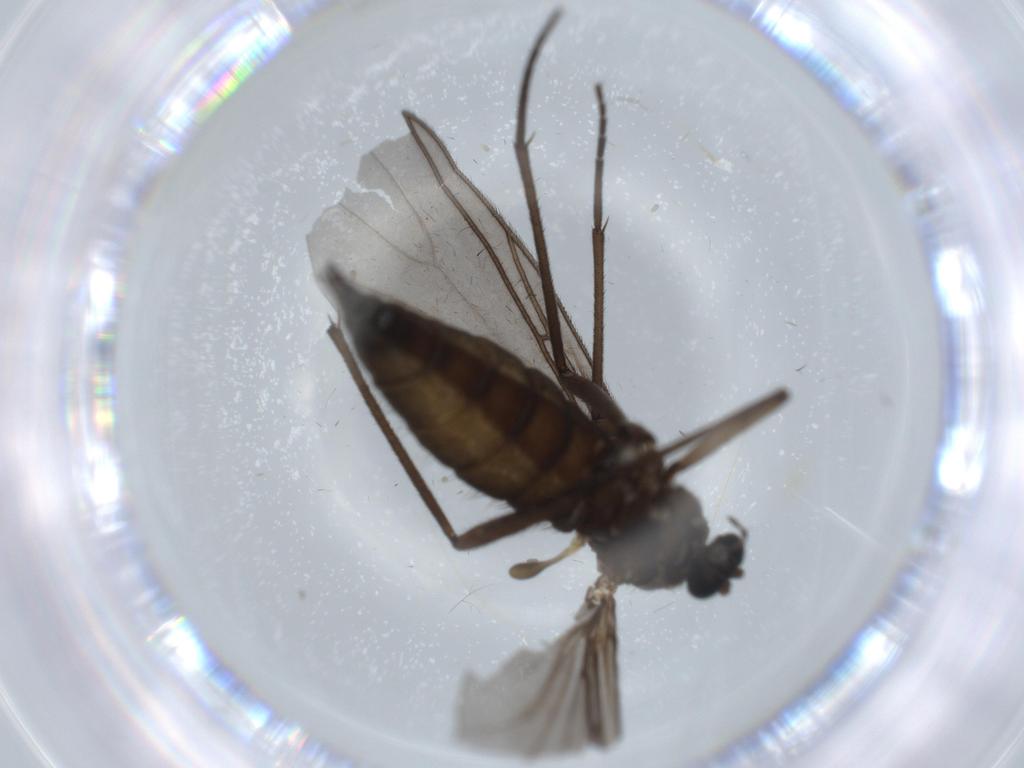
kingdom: Animalia
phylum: Arthropoda
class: Insecta
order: Diptera
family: Sciaridae
